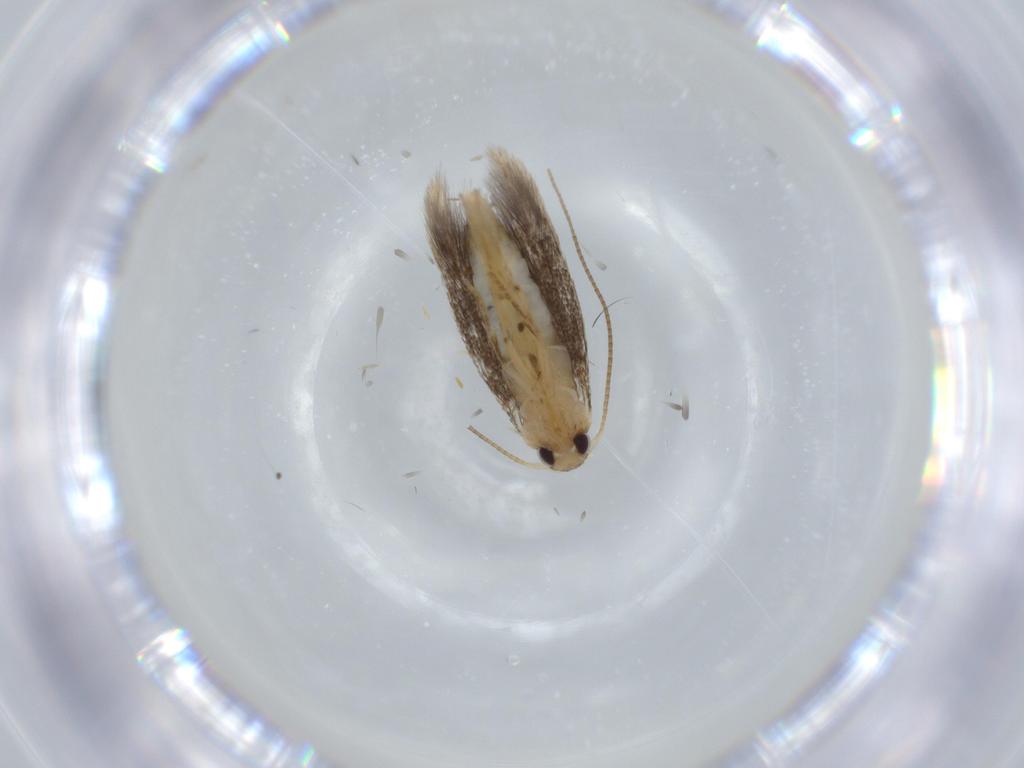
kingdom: Animalia
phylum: Arthropoda
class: Insecta
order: Lepidoptera
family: Gracillariidae
